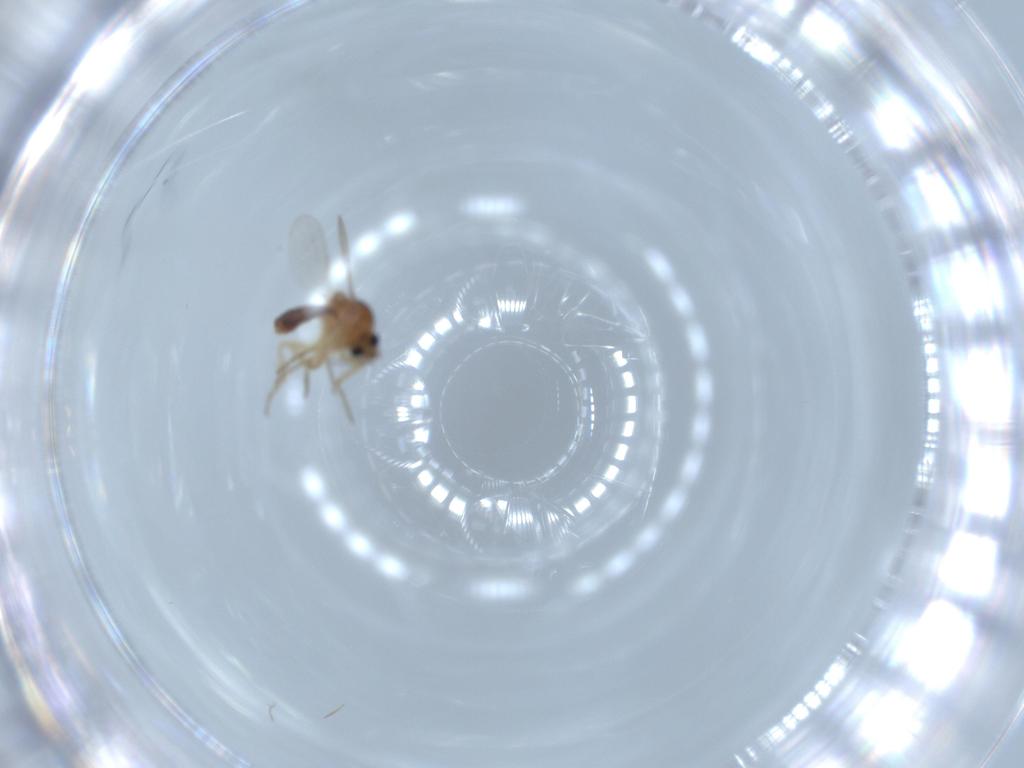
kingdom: Animalia
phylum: Arthropoda
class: Insecta
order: Diptera
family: Ceratopogonidae
